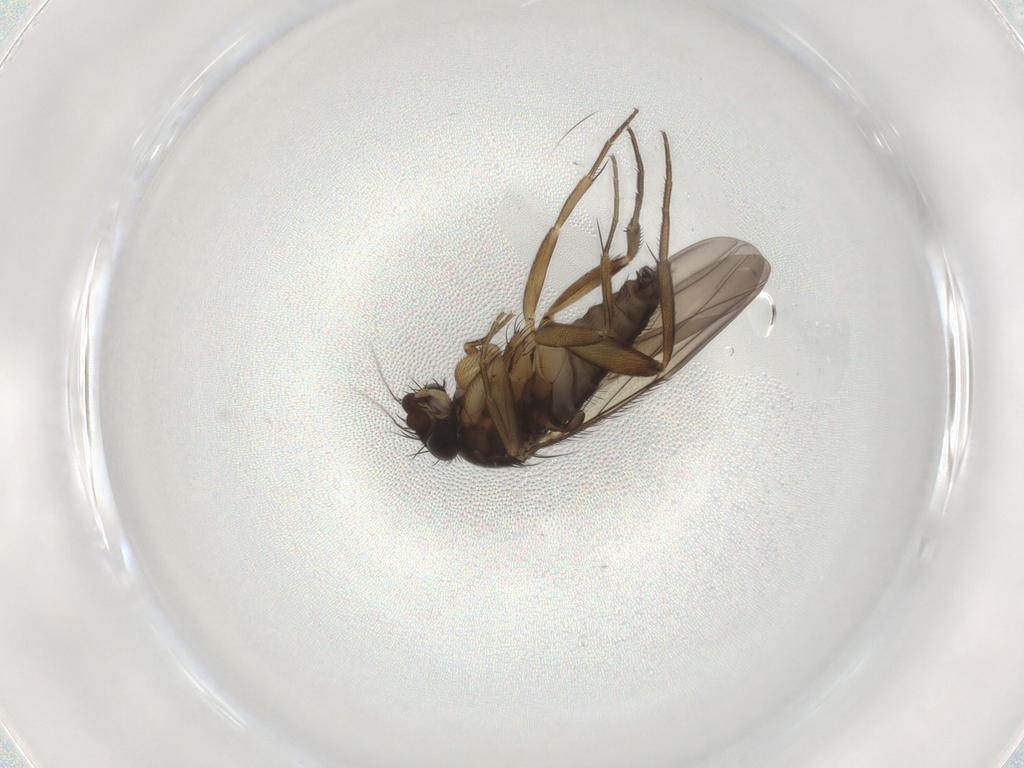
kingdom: Animalia
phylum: Arthropoda
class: Insecta
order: Diptera
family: Phoridae
